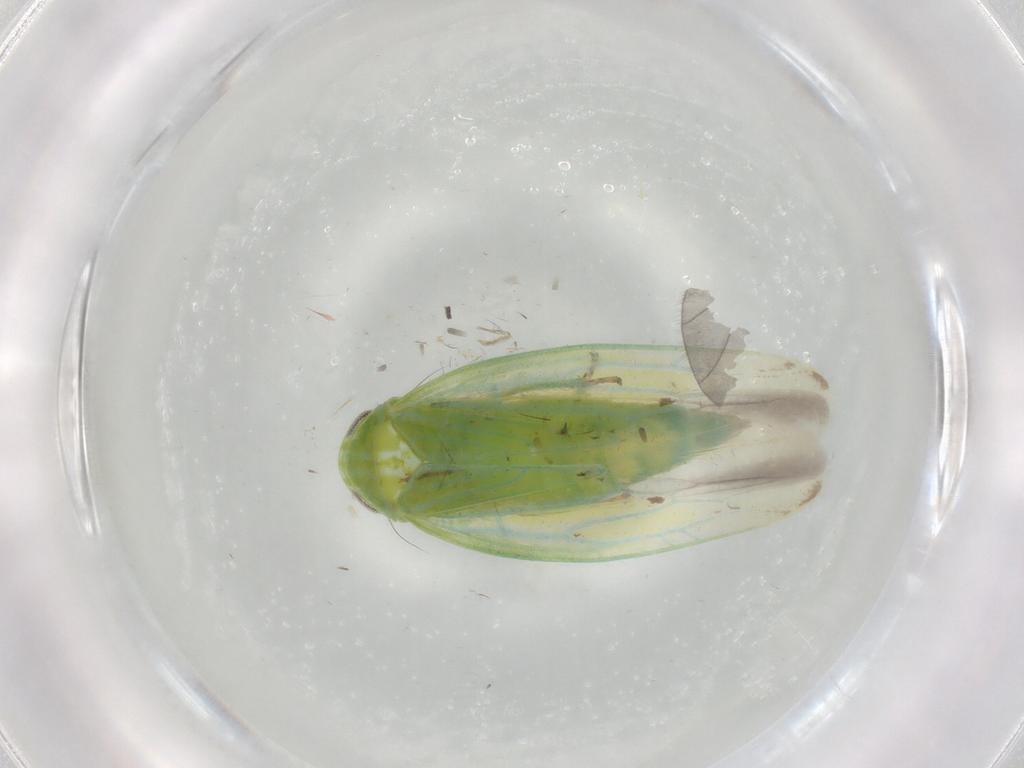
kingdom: Animalia
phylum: Arthropoda
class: Insecta
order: Hemiptera
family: Cicadellidae
